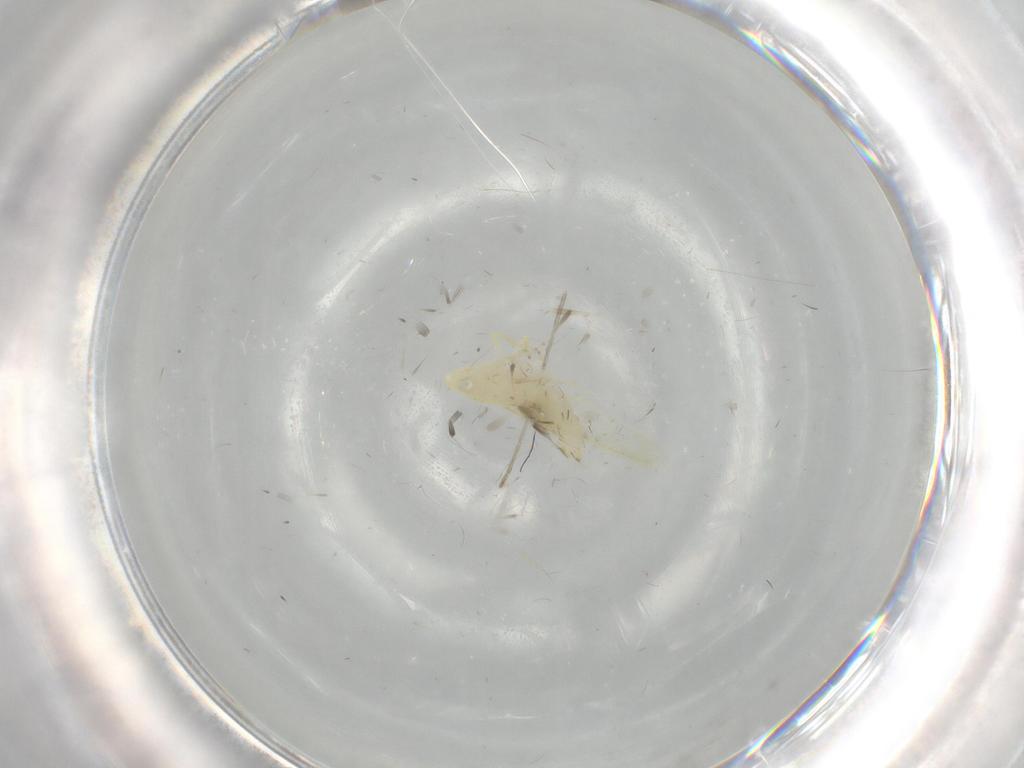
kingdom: Animalia
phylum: Arthropoda
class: Insecta
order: Hemiptera
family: Cicadellidae
